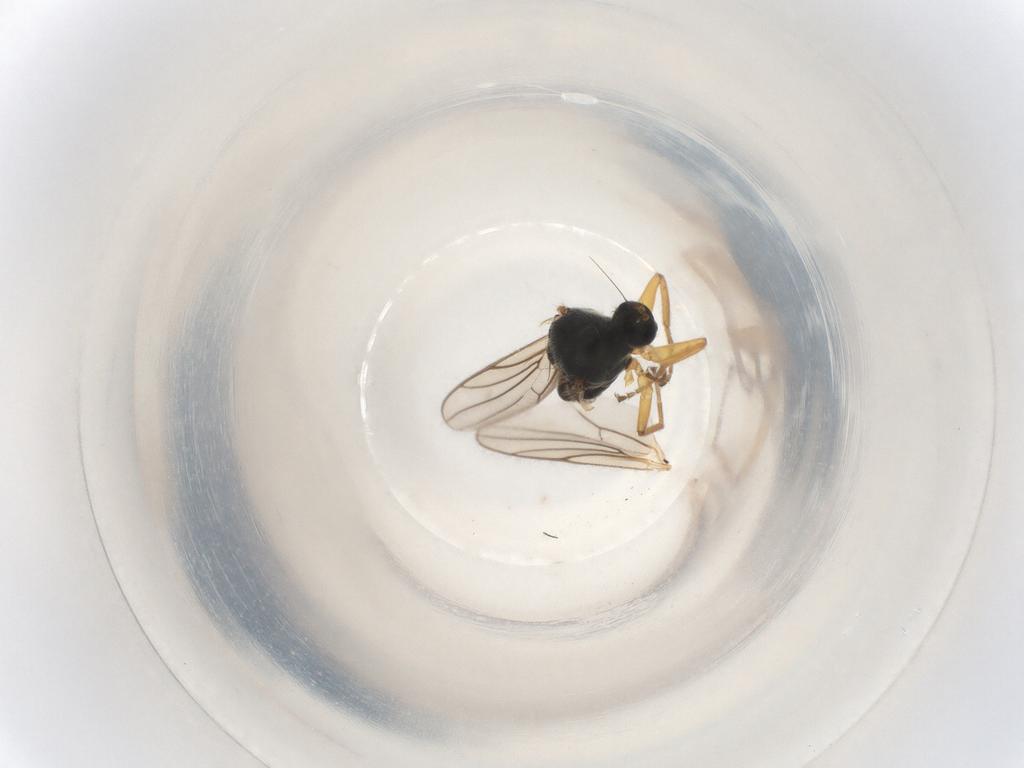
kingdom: Animalia
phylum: Arthropoda
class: Insecta
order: Diptera
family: Hybotidae
